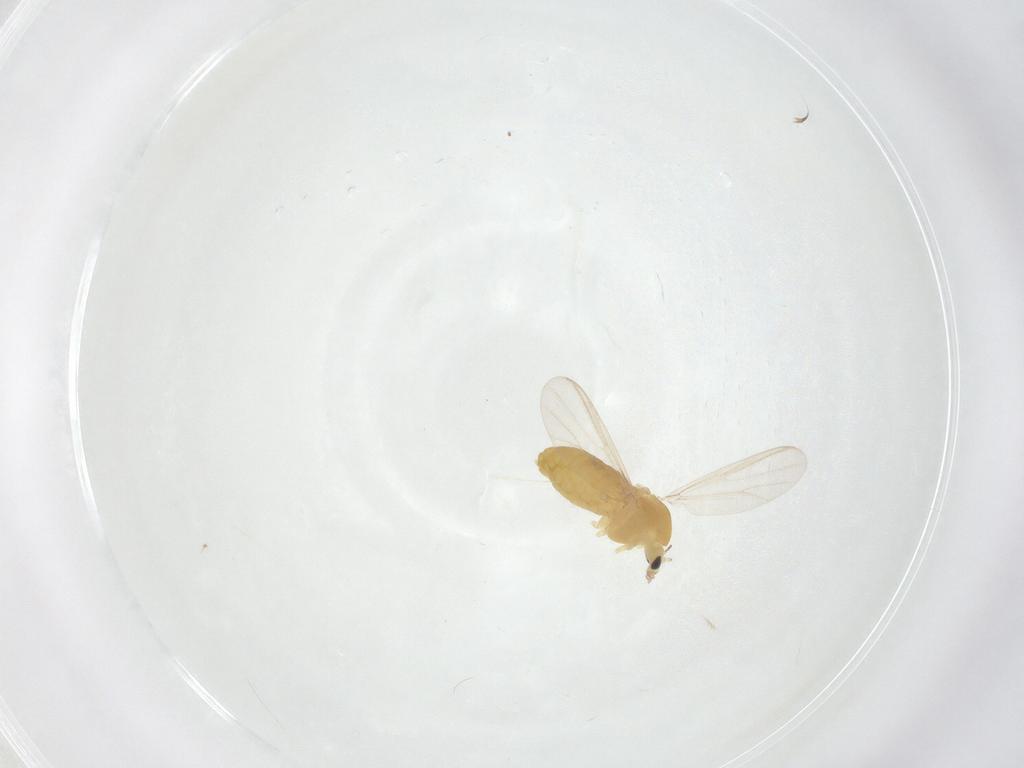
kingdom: Animalia
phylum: Arthropoda
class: Insecta
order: Diptera
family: Chironomidae
